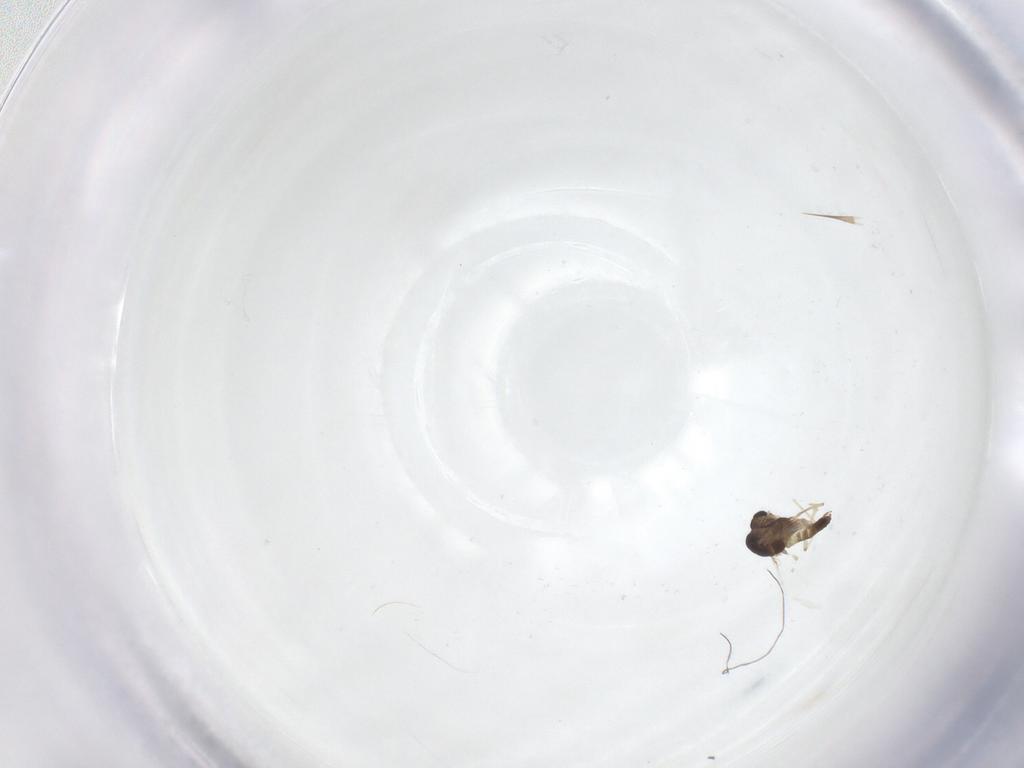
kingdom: Animalia
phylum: Arthropoda
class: Insecta
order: Diptera
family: Chironomidae
